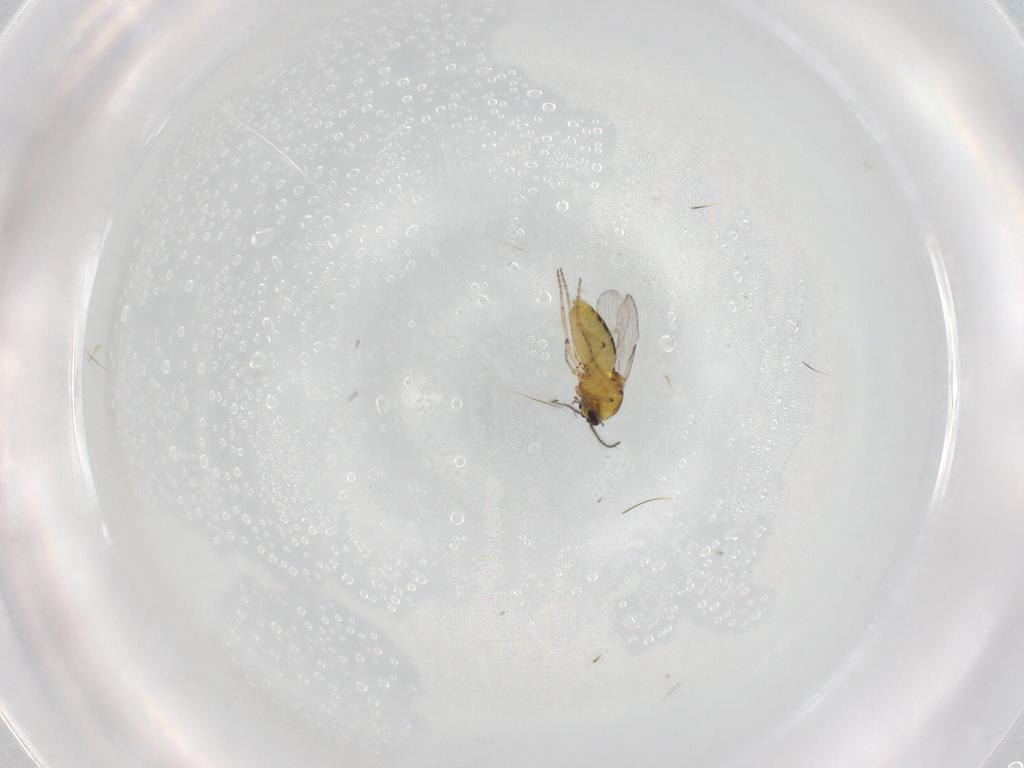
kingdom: Animalia
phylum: Arthropoda
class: Insecta
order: Diptera
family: Ceratopogonidae
